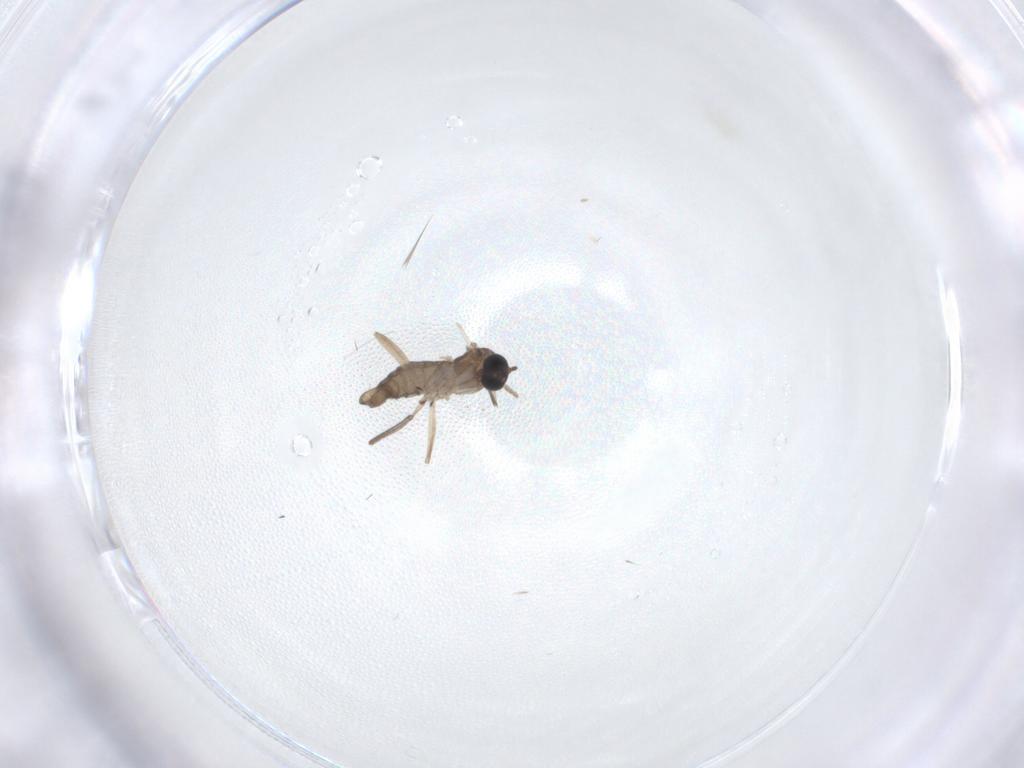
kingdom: Animalia
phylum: Arthropoda
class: Insecta
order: Diptera
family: Sciaridae
